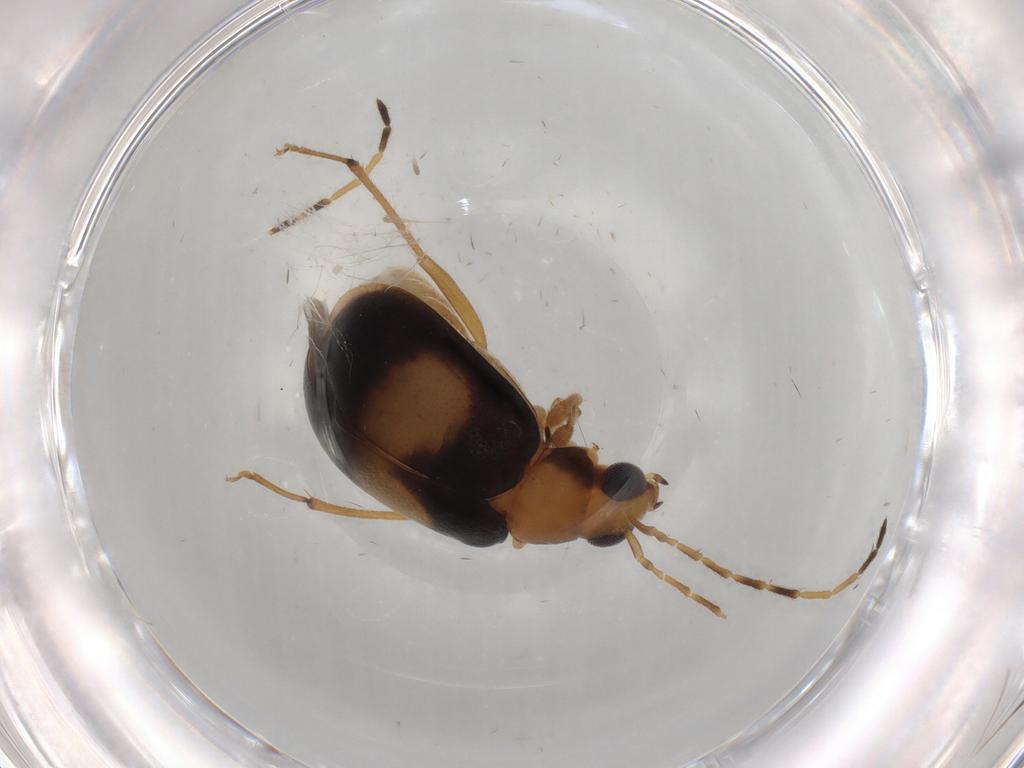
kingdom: Animalia
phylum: Arthropoda
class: Insecta
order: Coleoptera
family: Chrysomelidae
